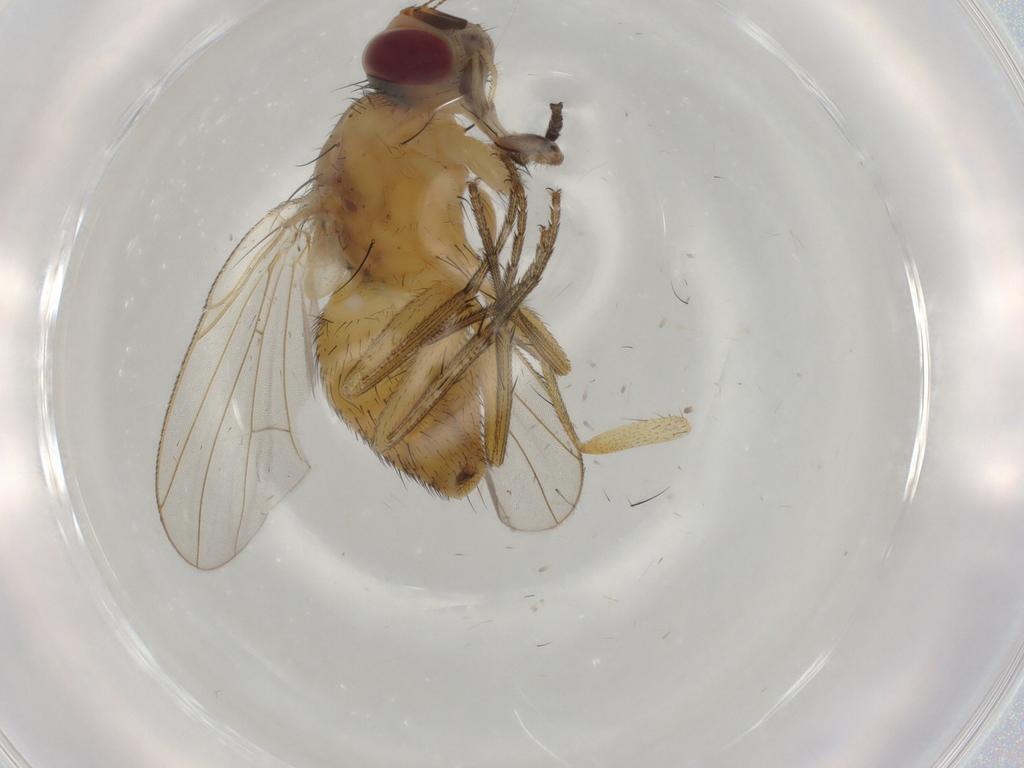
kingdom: Animalia
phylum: Arthropoda
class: Insecta
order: Diptera
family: Muscidae
